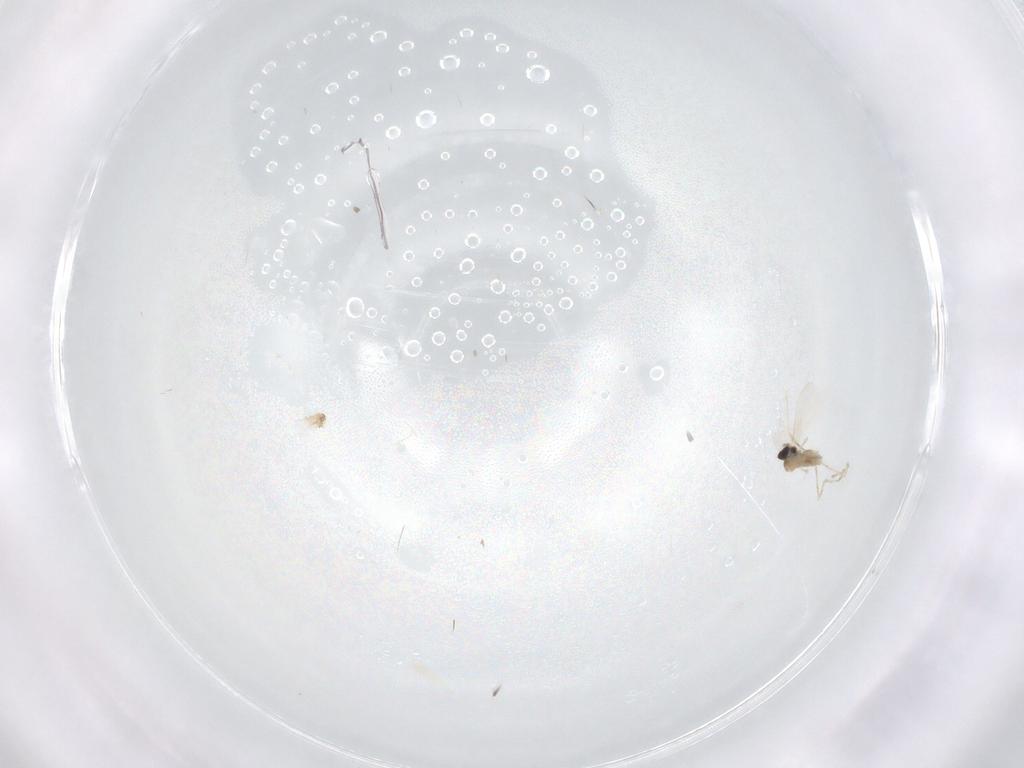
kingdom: Animalia
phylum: Arthropoda
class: Insecta
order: Diptera
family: Cecidomyiidae
